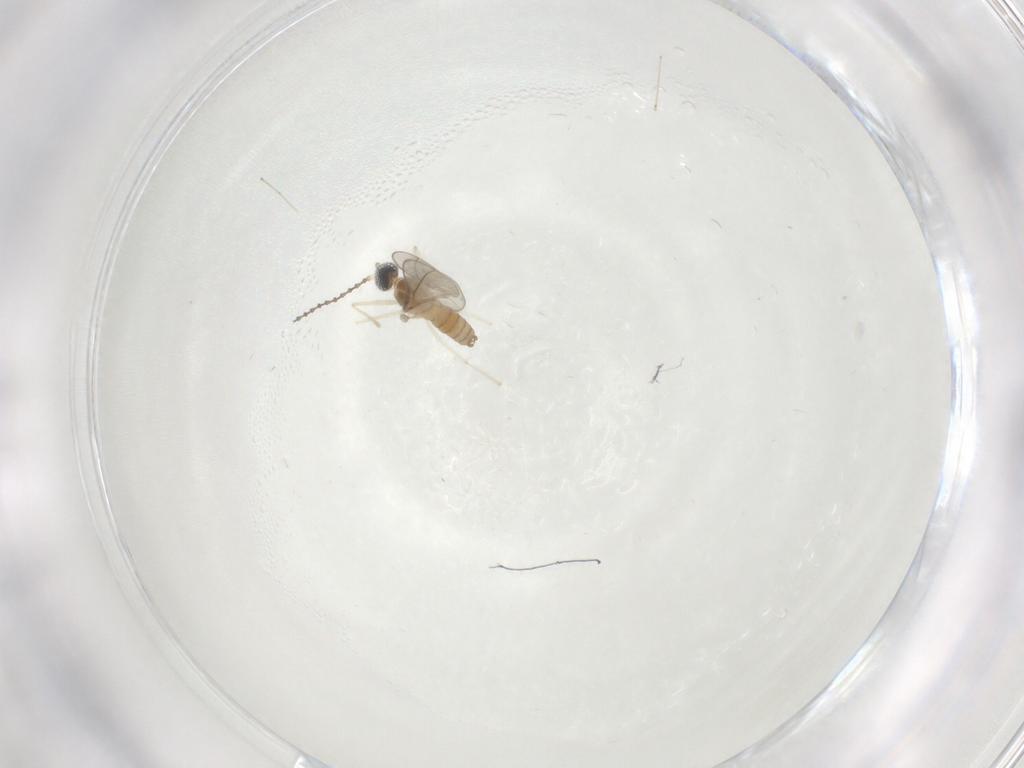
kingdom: Animalia
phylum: Arthropoda
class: Insecta
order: Diptera
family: Cecidomyiidae
